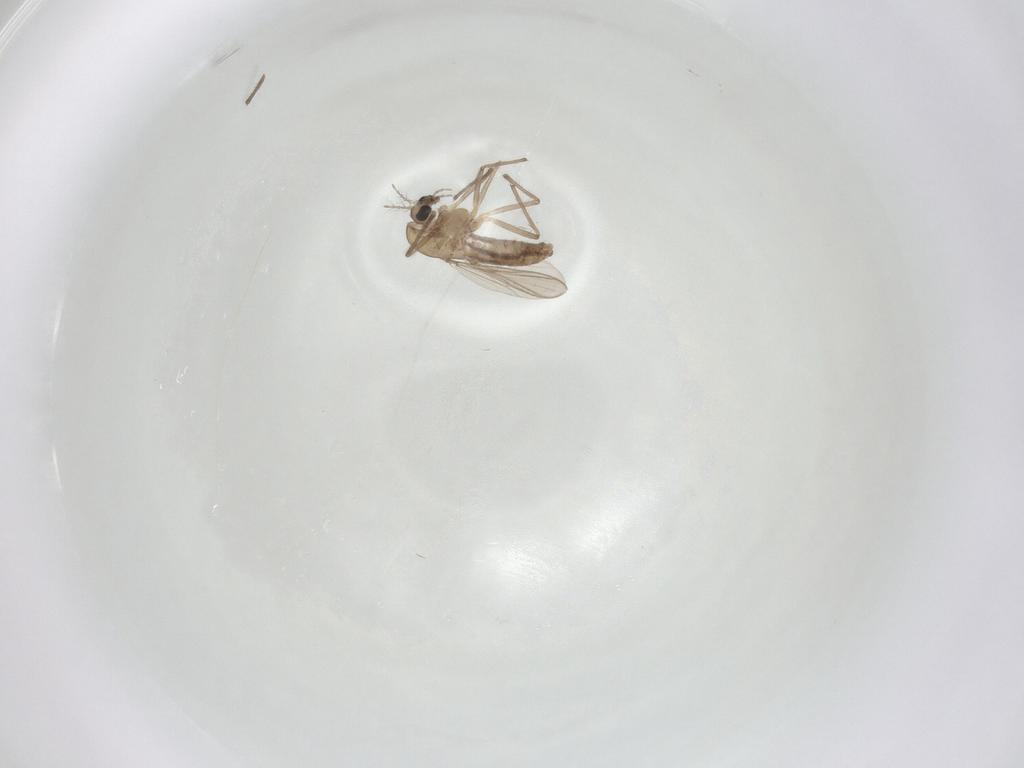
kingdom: Animalia
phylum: Arthropoda
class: Insecta
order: Diptera
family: Chironomidae
